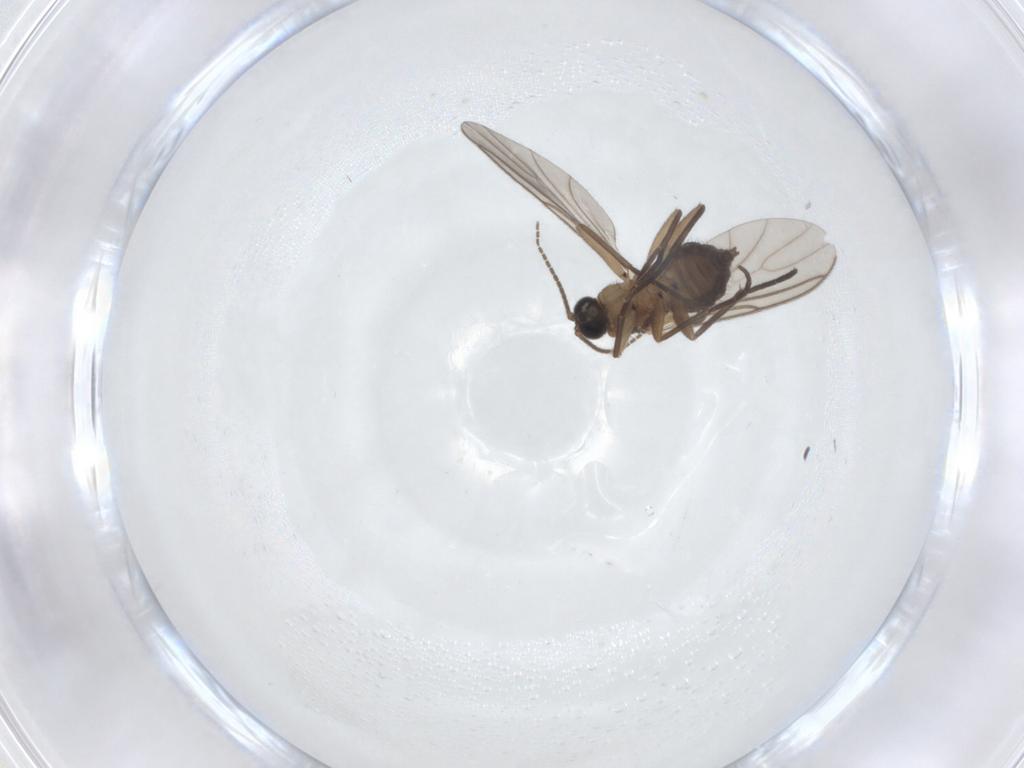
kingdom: Animalia
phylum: Arthropoda
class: Insecta
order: Diptera
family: Sciaridae
